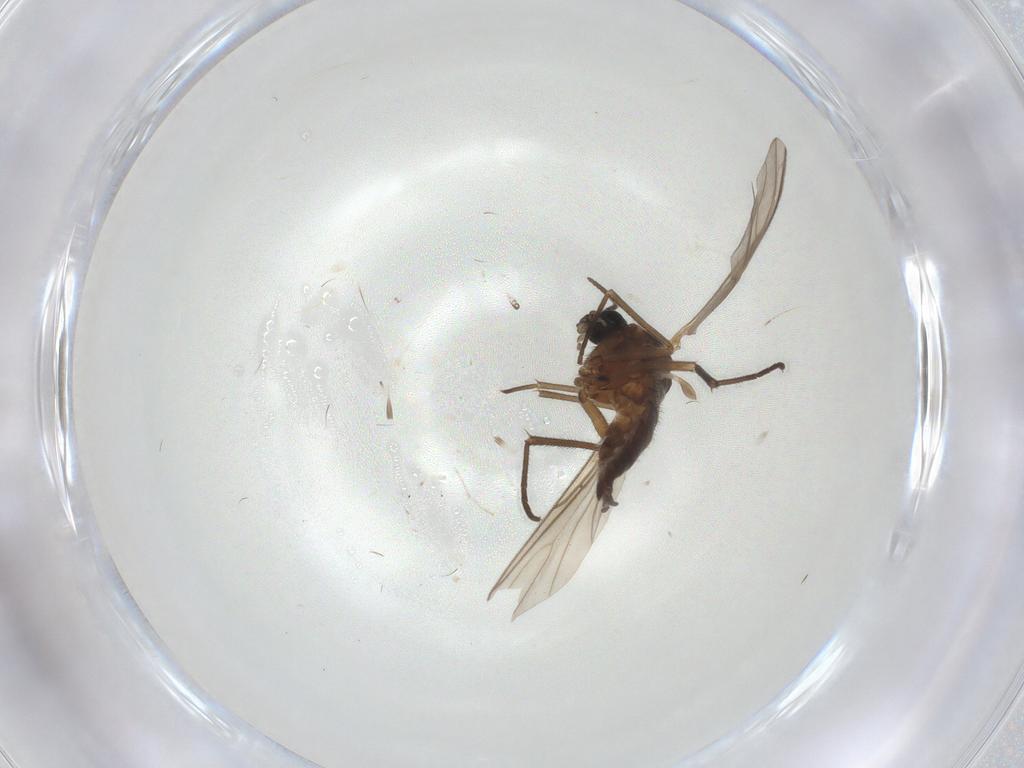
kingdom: Animalia
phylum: Arthropoda
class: Insecta
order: Diptera
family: Sciaridae
